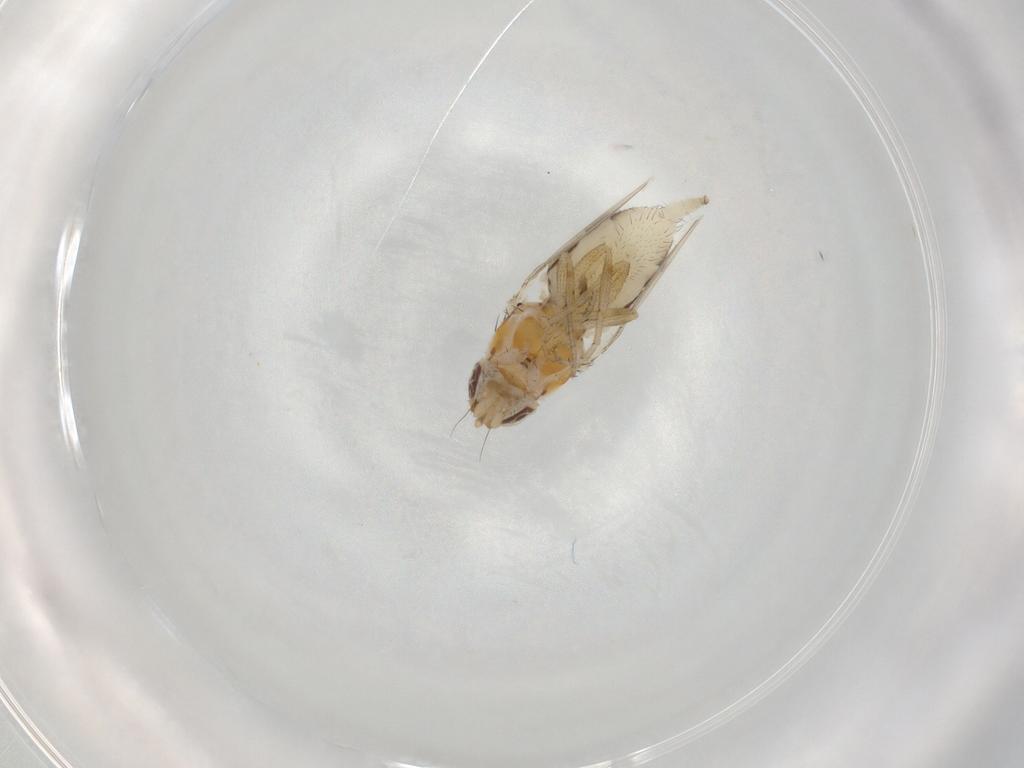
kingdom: Animalia
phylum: Arthropoda
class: Insecta
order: Diptera
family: Milichiidae
